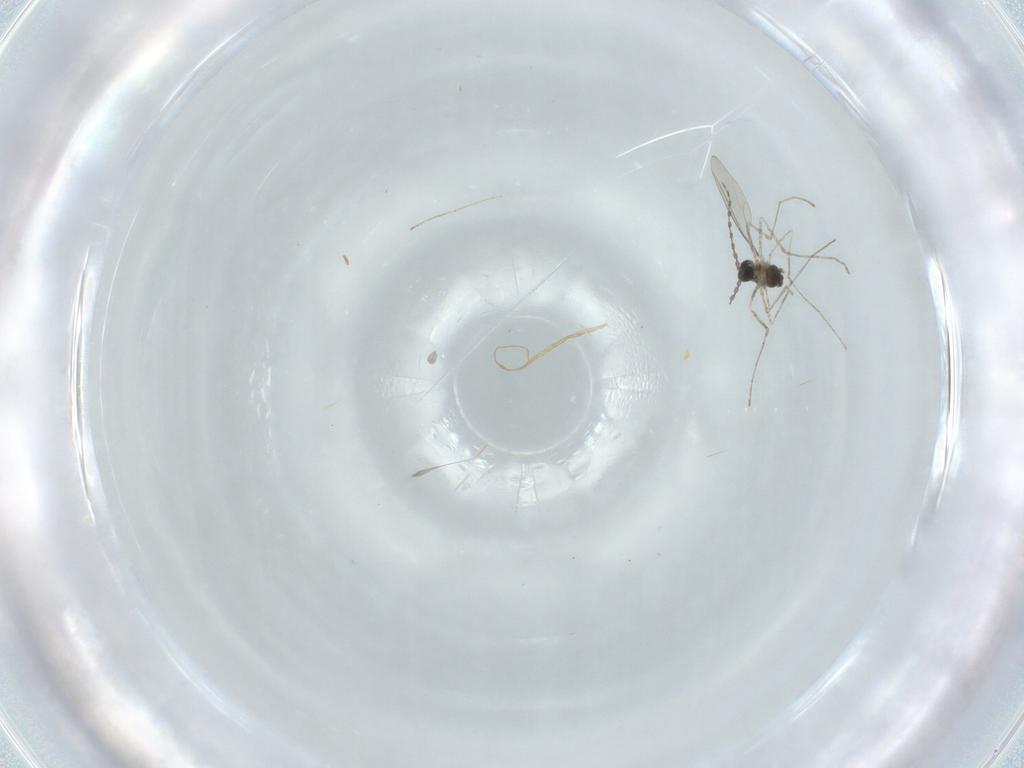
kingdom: Animalia
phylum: Arthropoda
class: Insecta
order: Diptera
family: Cecidomyiidae
